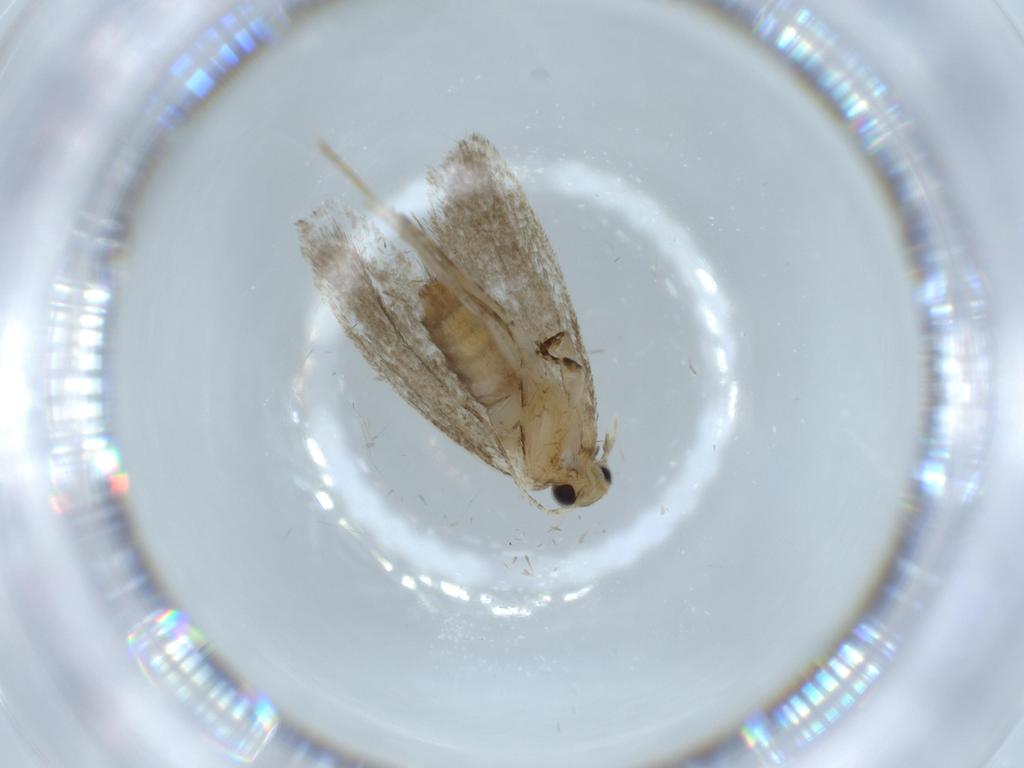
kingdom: Animalia
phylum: Arthropoda
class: Insecta
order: Lepidoptera
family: Tineidae
